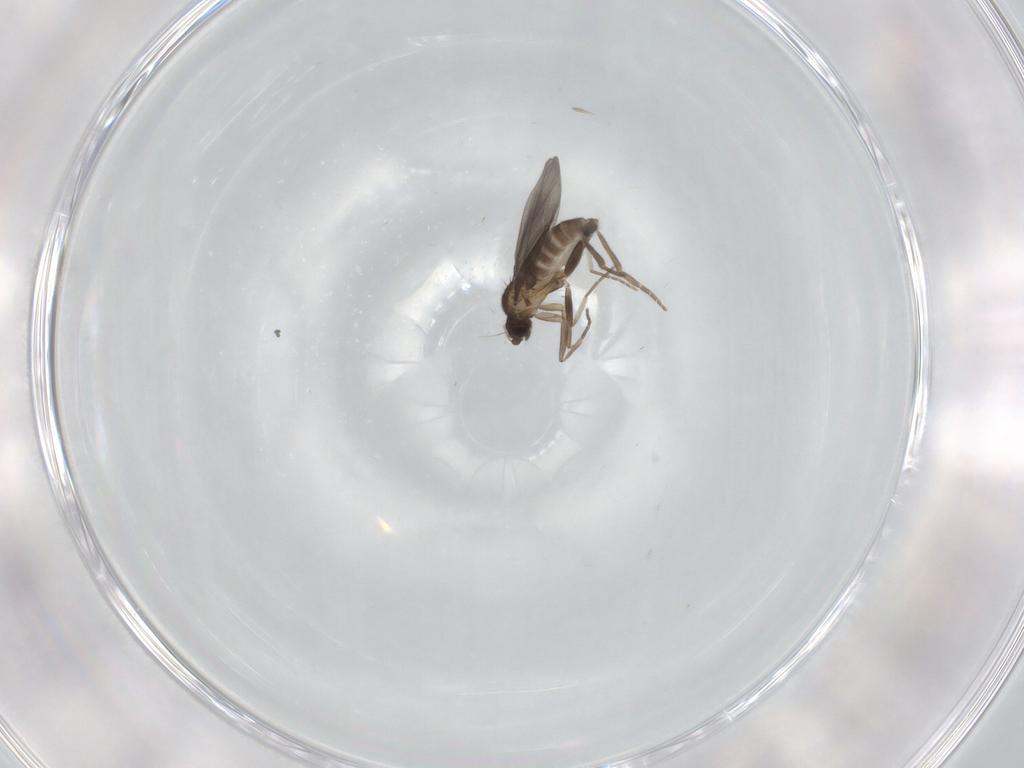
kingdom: Animalia
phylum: Arthropoda
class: Insecta
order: Diptera
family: Phoridae
